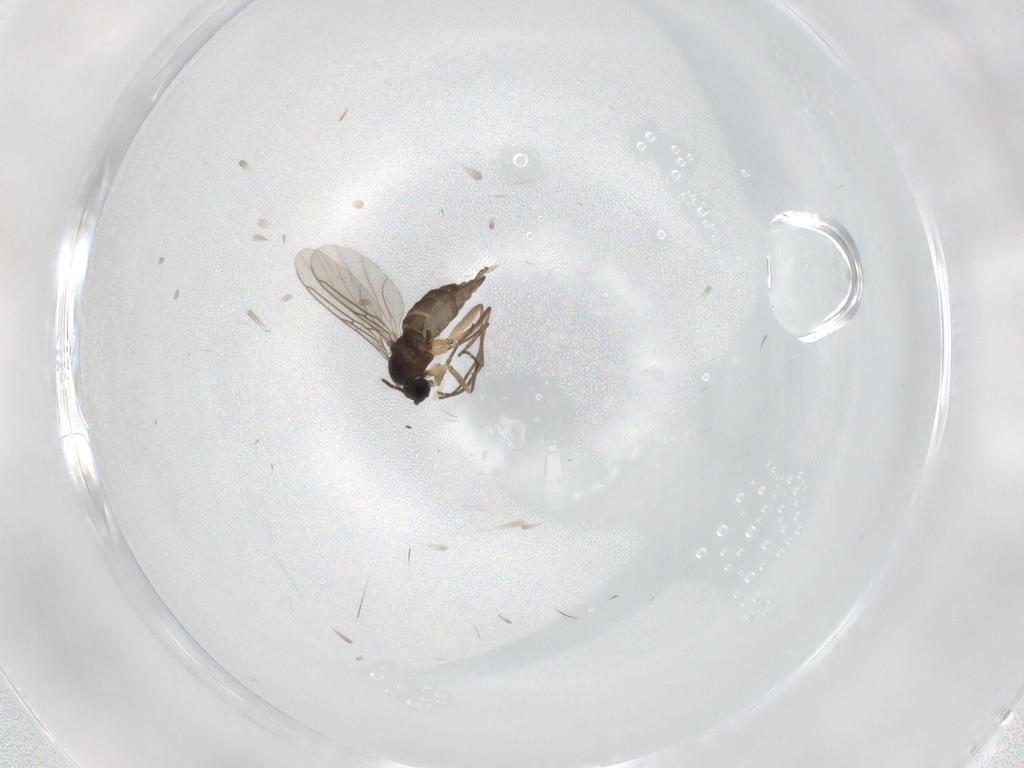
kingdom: Animalia
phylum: Arthropoda
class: Insecta
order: Diptera
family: Sciaridae
